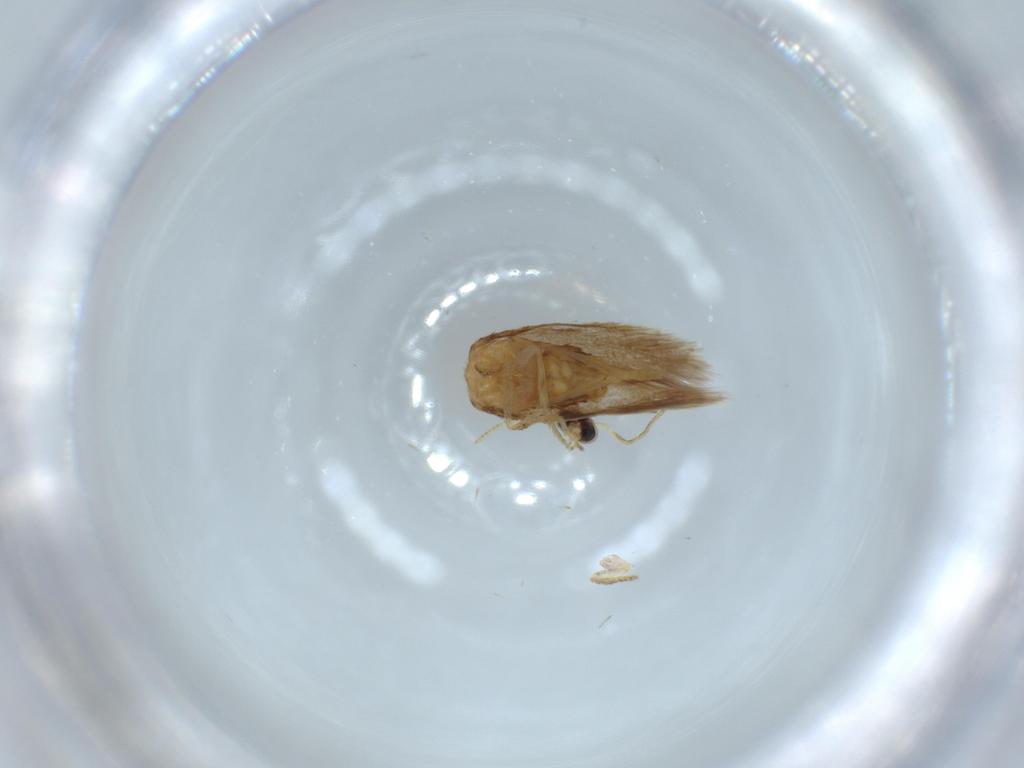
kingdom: Animalia
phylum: Arthropoda
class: Insecta
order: Lepidoptera
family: Nepticulidae
